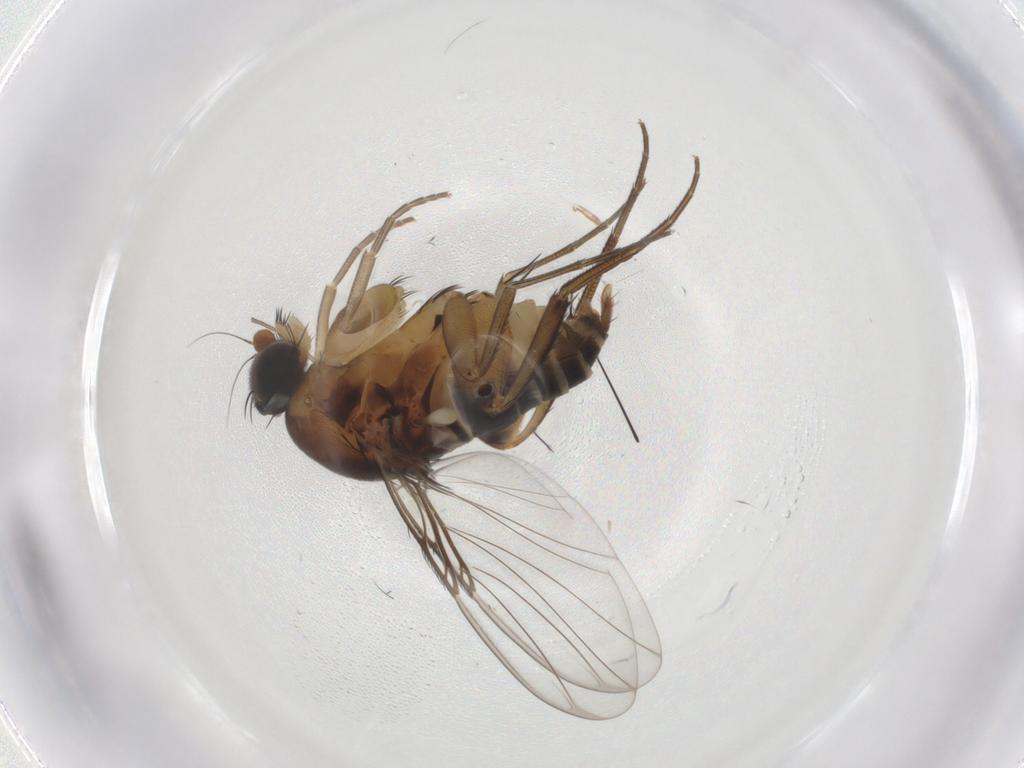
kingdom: Animalia
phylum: Arthropoda
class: Insecta
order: Diptera
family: Phoridae
